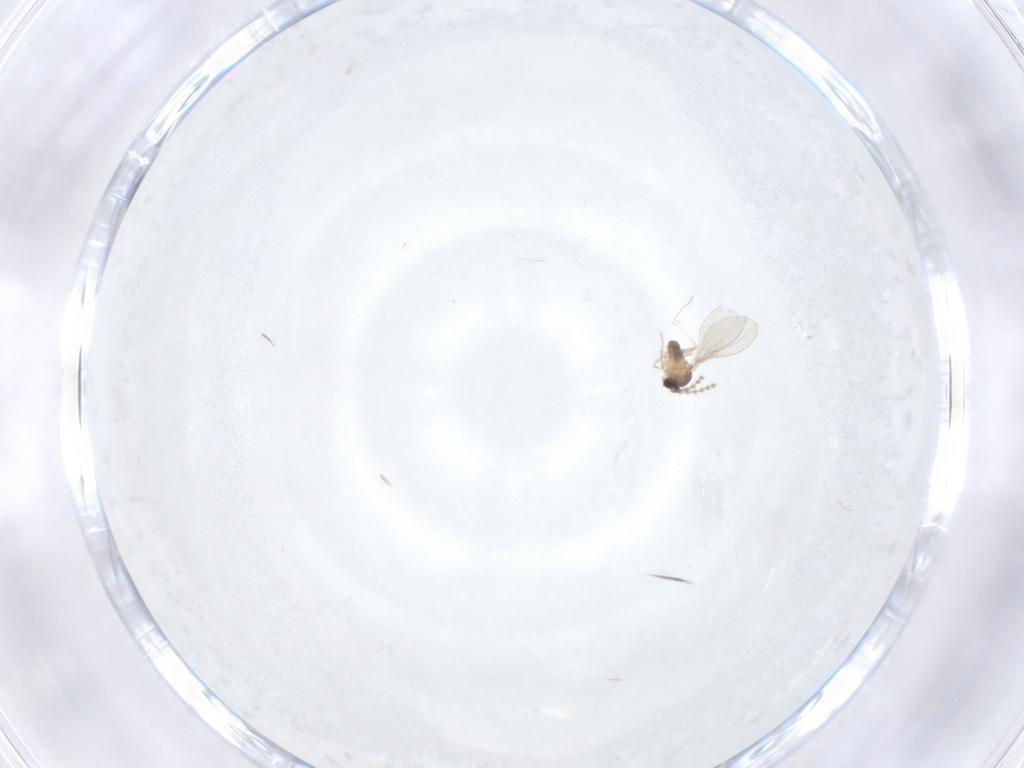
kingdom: Animalia
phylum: Arthropoda
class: Insecta
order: Diptera
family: Cecidomyiidae
